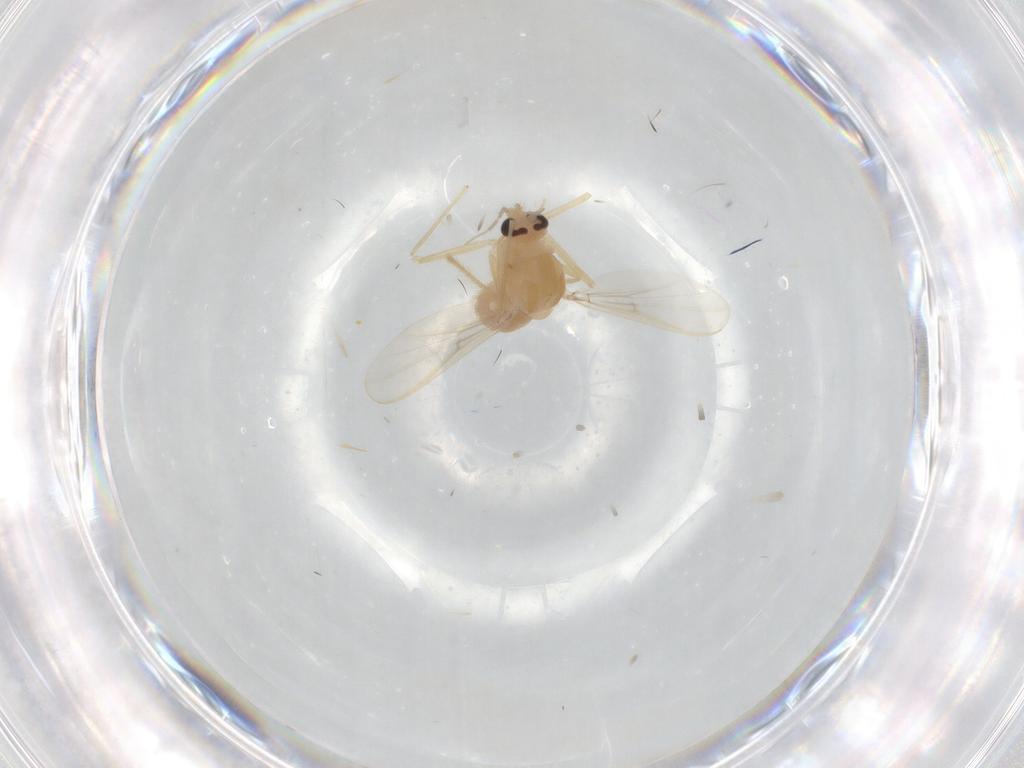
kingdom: Animalia
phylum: Arthropoda
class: Insecta
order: Diptera
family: Chironomidae
